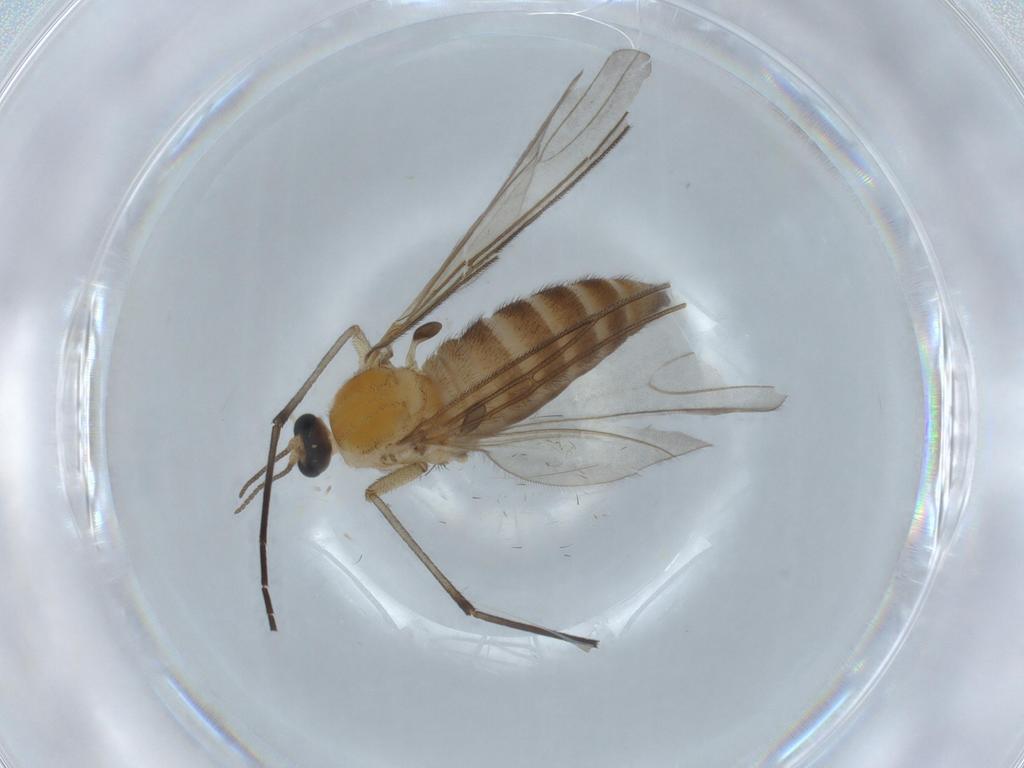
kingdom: Animalia
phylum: Arthropoda
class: Insecta
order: Diptera
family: Sciaridae
